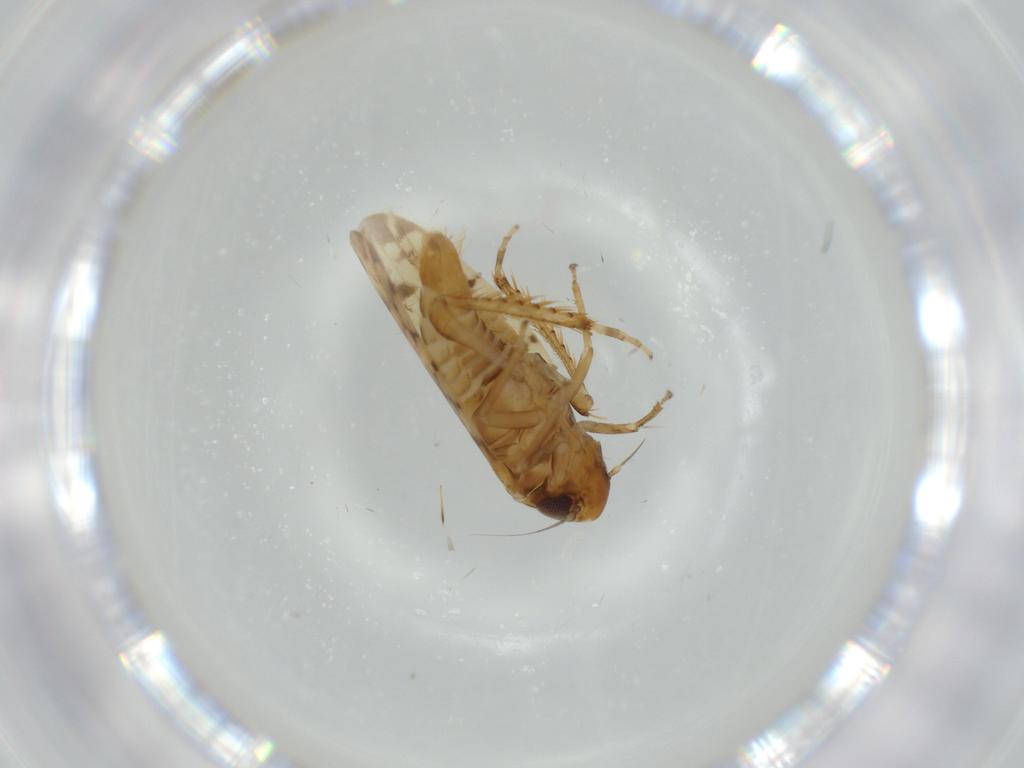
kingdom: Animalia
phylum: Arthropoda
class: Insecta
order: Hemiptera
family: Cicadellidae
